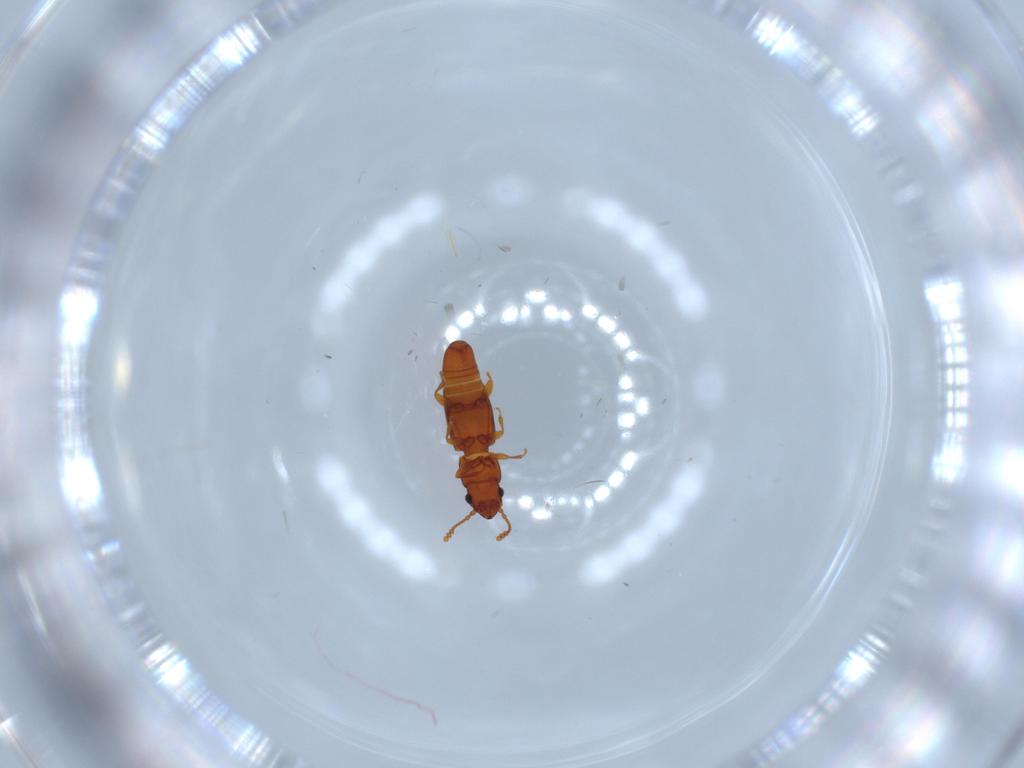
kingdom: Animalia
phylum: Arthropoda
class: Insecta
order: Coleoptera
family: Smicripidae
